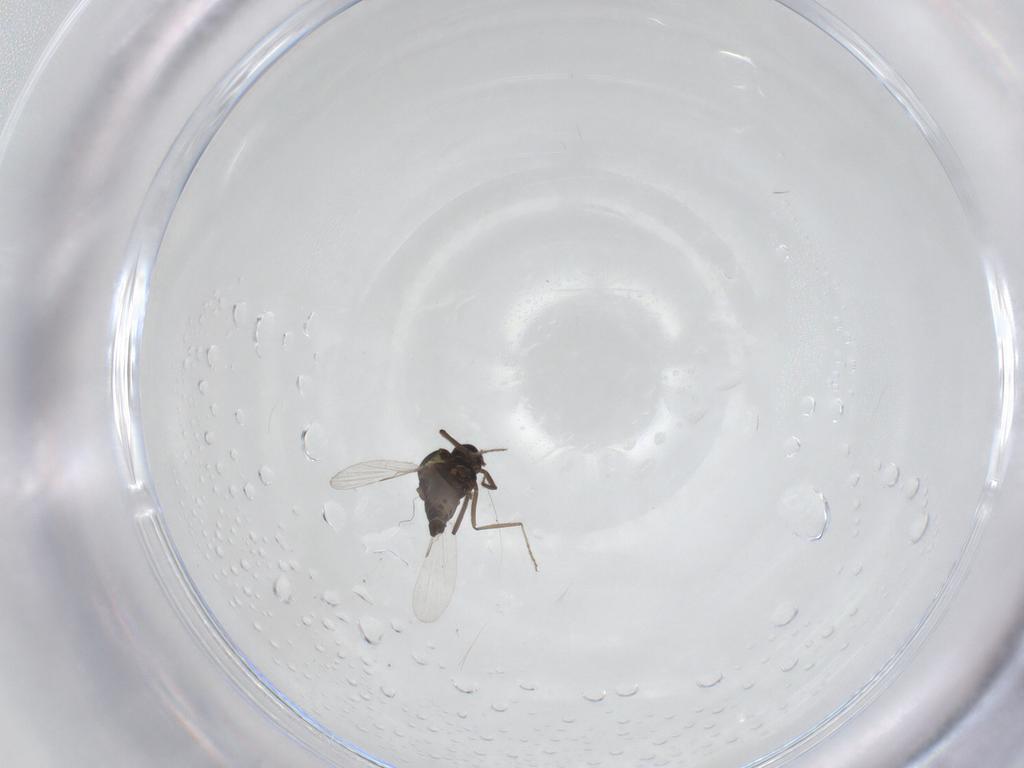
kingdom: Animalia
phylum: Arthropoda
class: Insecta
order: Diptera
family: Ceratopogonidae
